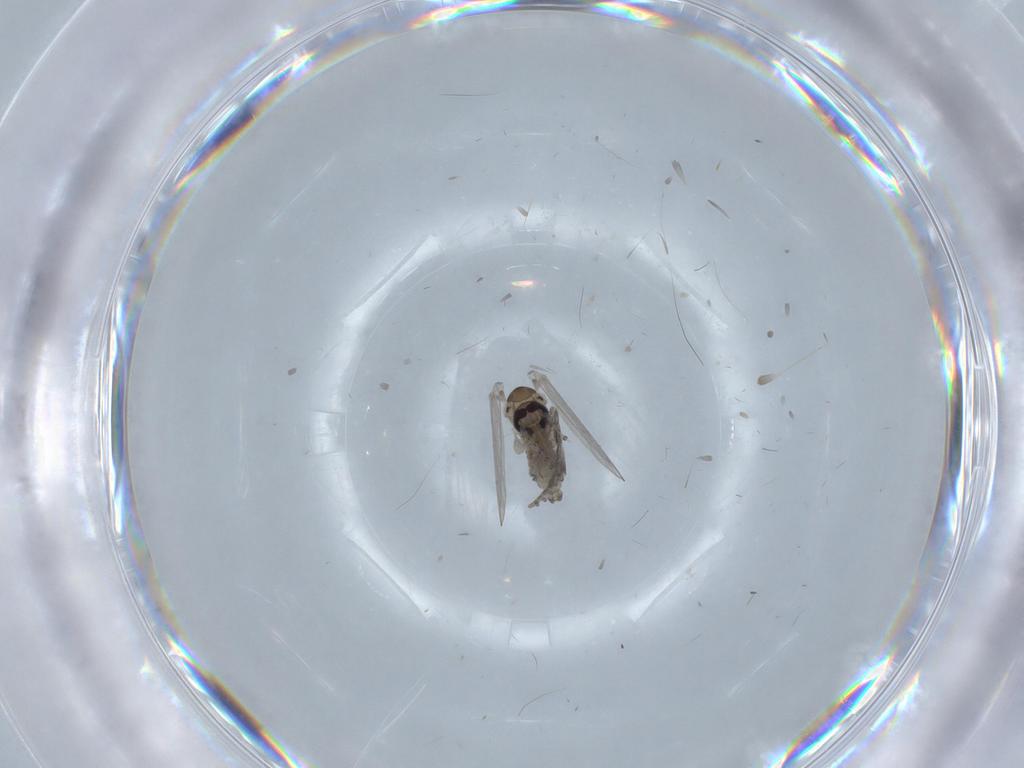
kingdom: Animalia
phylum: Arthropoda
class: Insecta
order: Diptera
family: Psychodidae
